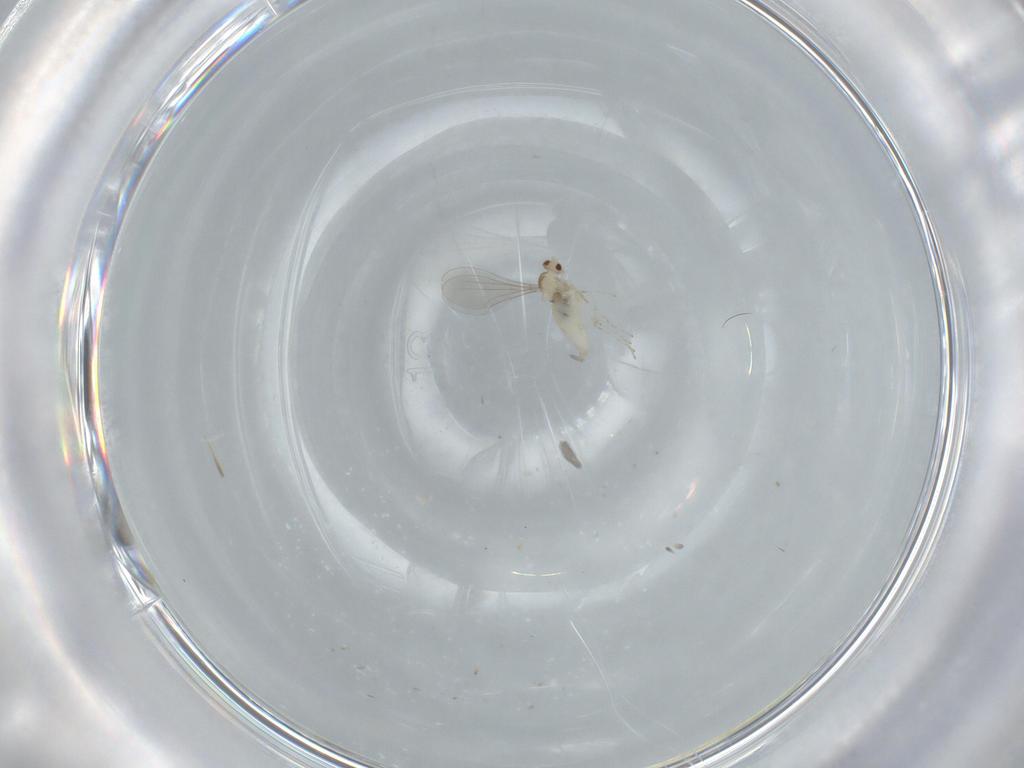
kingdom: Animalia
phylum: Arthropoda
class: Insecta
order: Diptera
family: Cecidomyiidae
